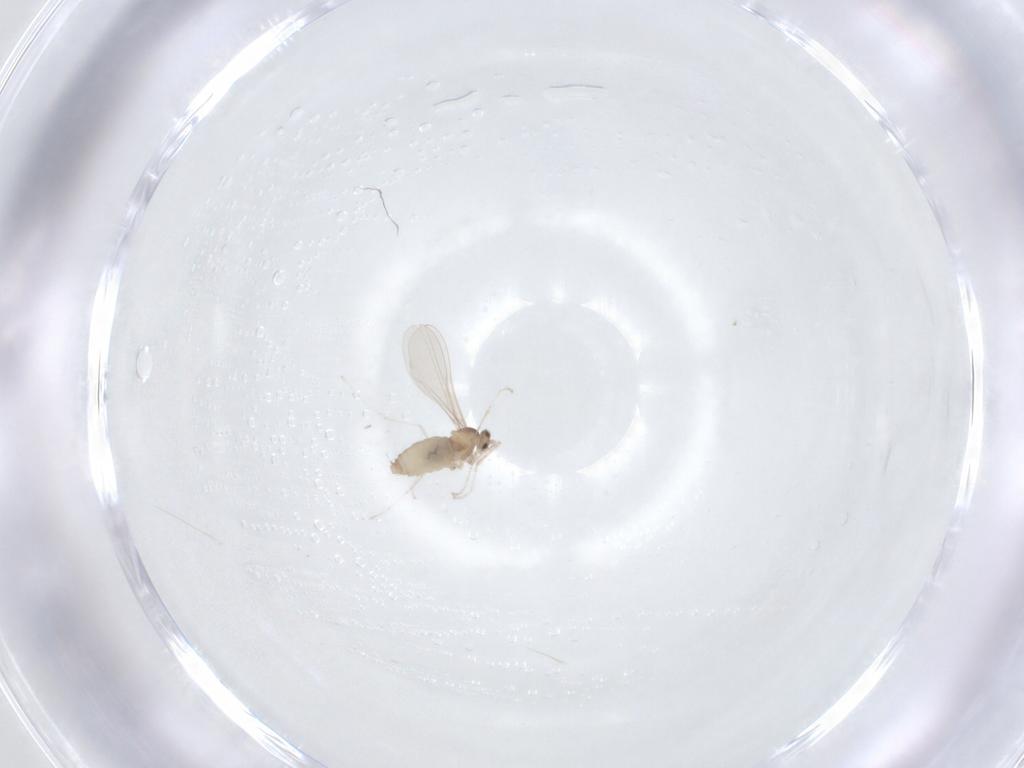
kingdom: Animalia
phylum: Arthropoda
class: Insecta
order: Diptera
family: Cecidomyiidae
